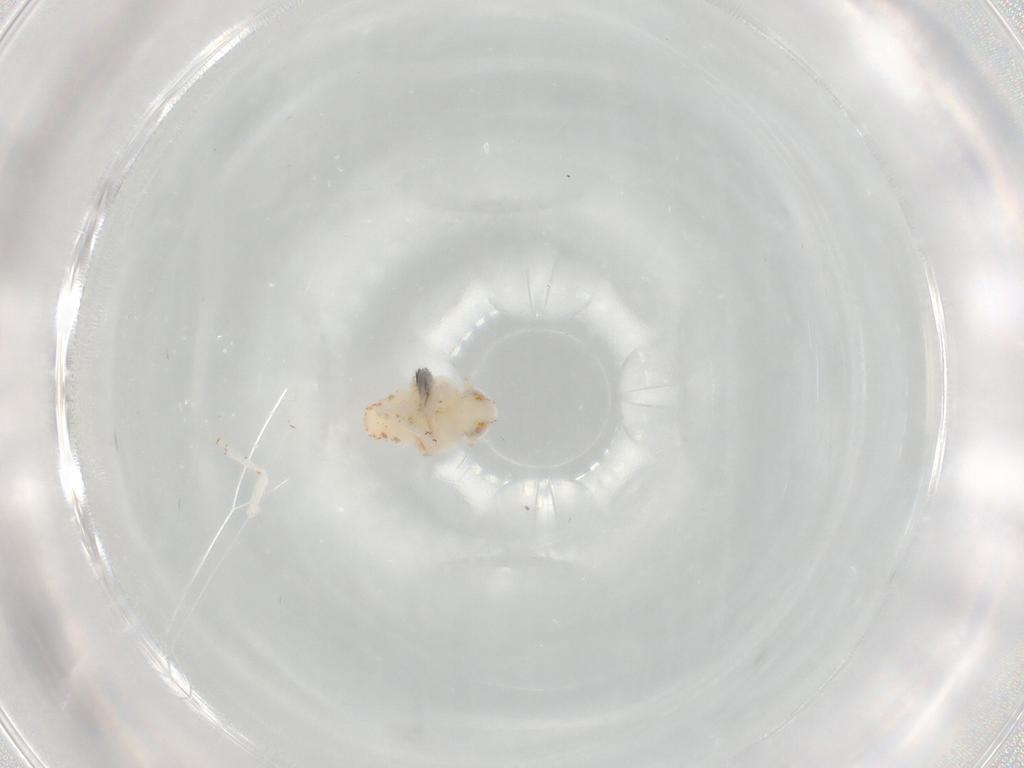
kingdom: Animalia
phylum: Arthropoda
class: Insecta
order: Hemiptera
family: Nogodinidae
